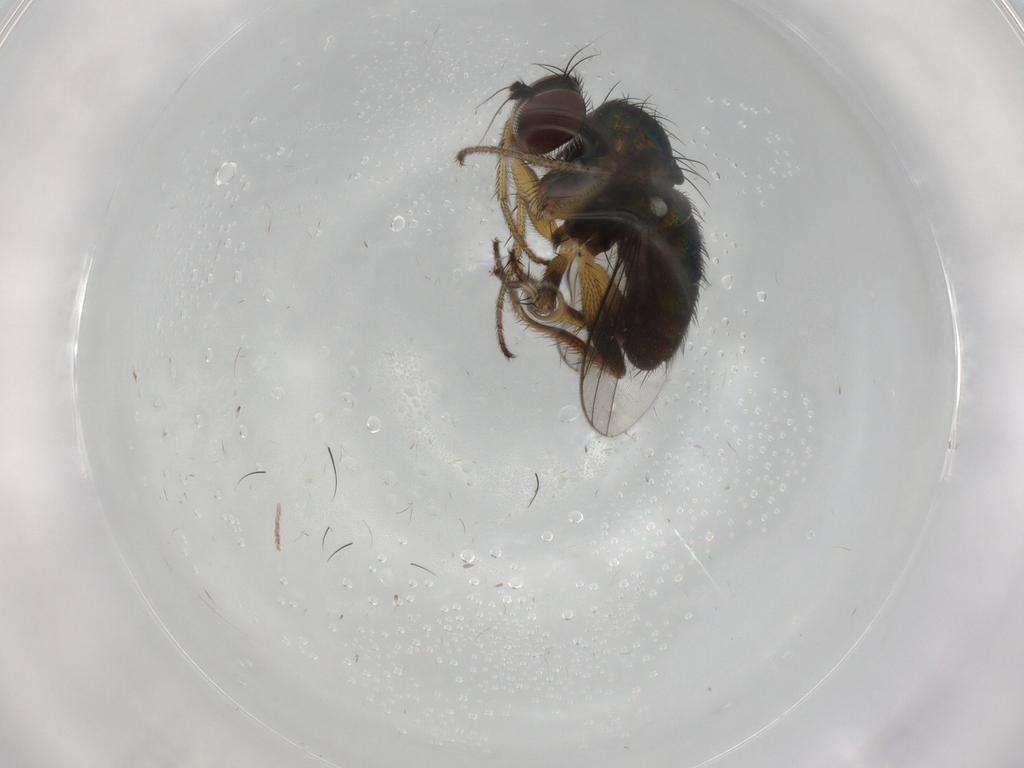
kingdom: Animalia
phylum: Arthropoda
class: Insecta
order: Diptera
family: Dolichopodidae
